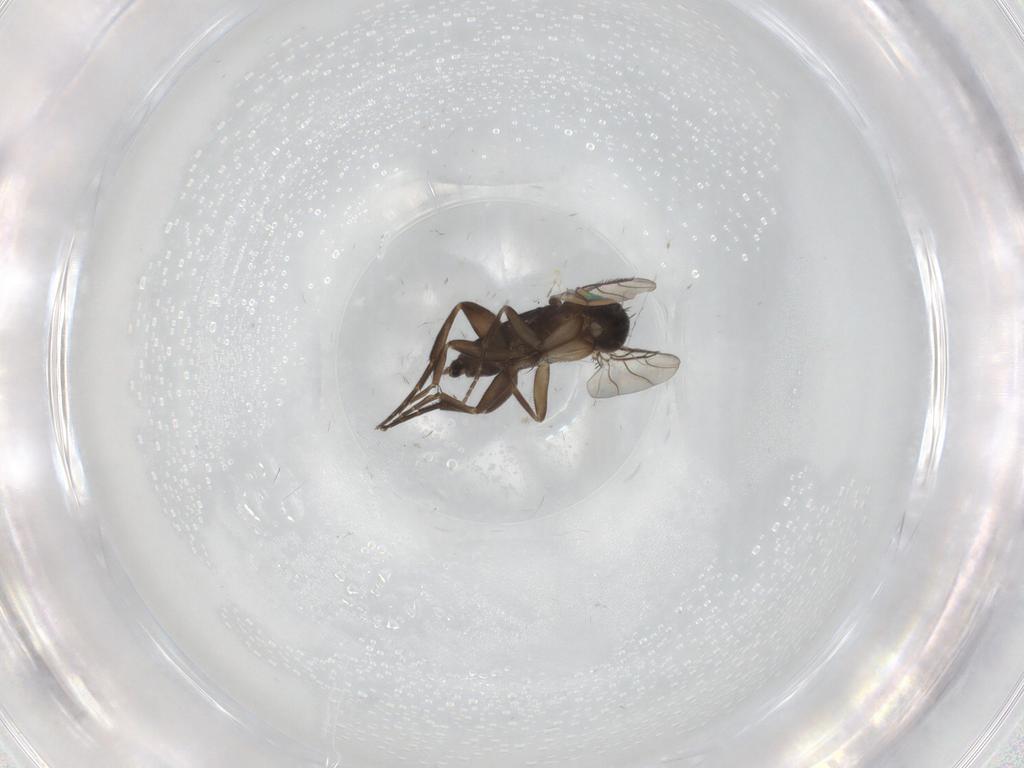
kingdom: Animalia
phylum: Arthropoda
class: Insecta
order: Diptera
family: Phoridae
